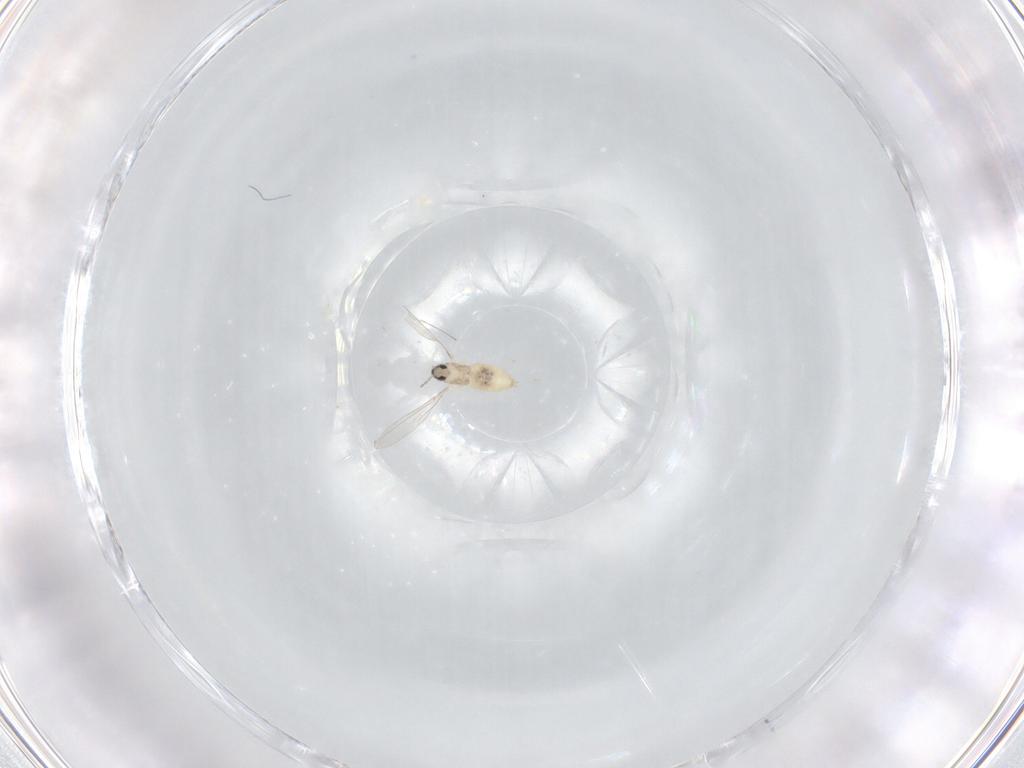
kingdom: Animalia
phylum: Arthropoda
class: Insecta
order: Diptera
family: Cecidomyiidae
